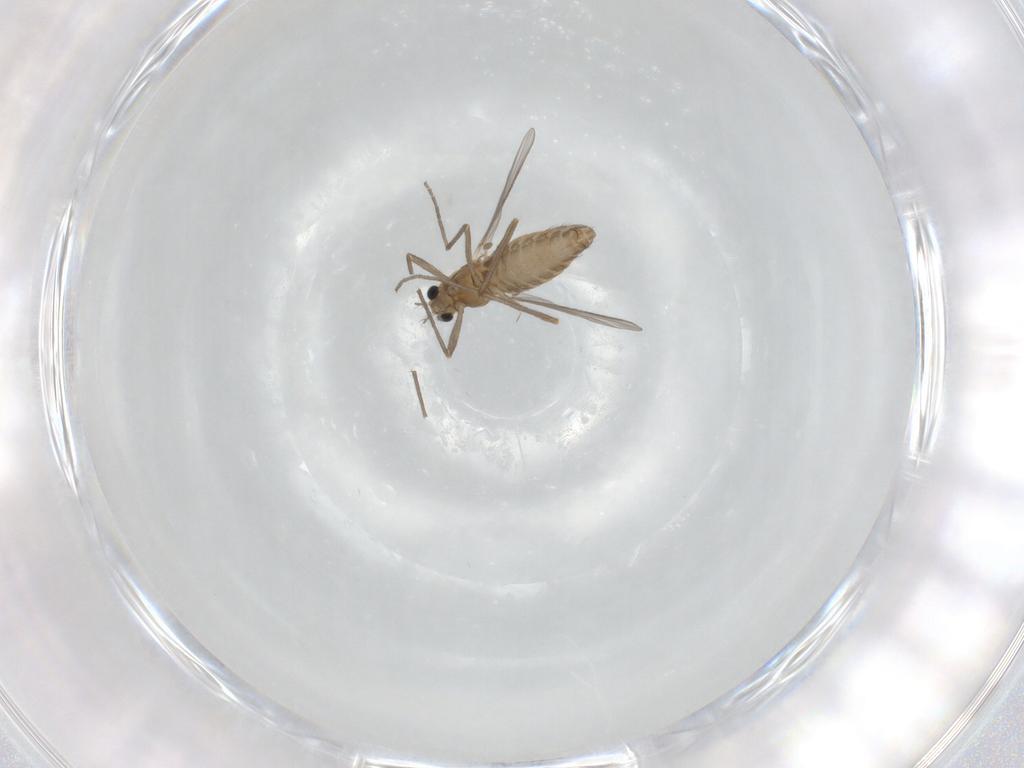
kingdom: Animalia
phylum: Arthropoda
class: Insecta
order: Diptera
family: Chironomidae
